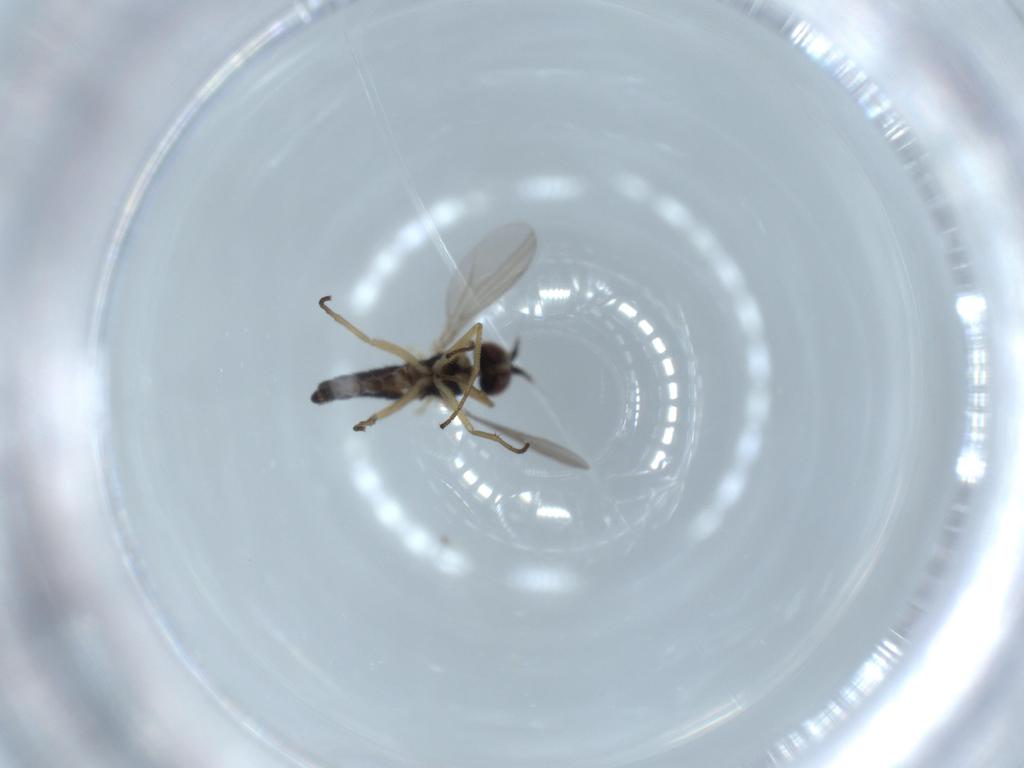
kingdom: Animalia
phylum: Arthropoda
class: Insecta
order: Diptera
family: Dolichopodidae
